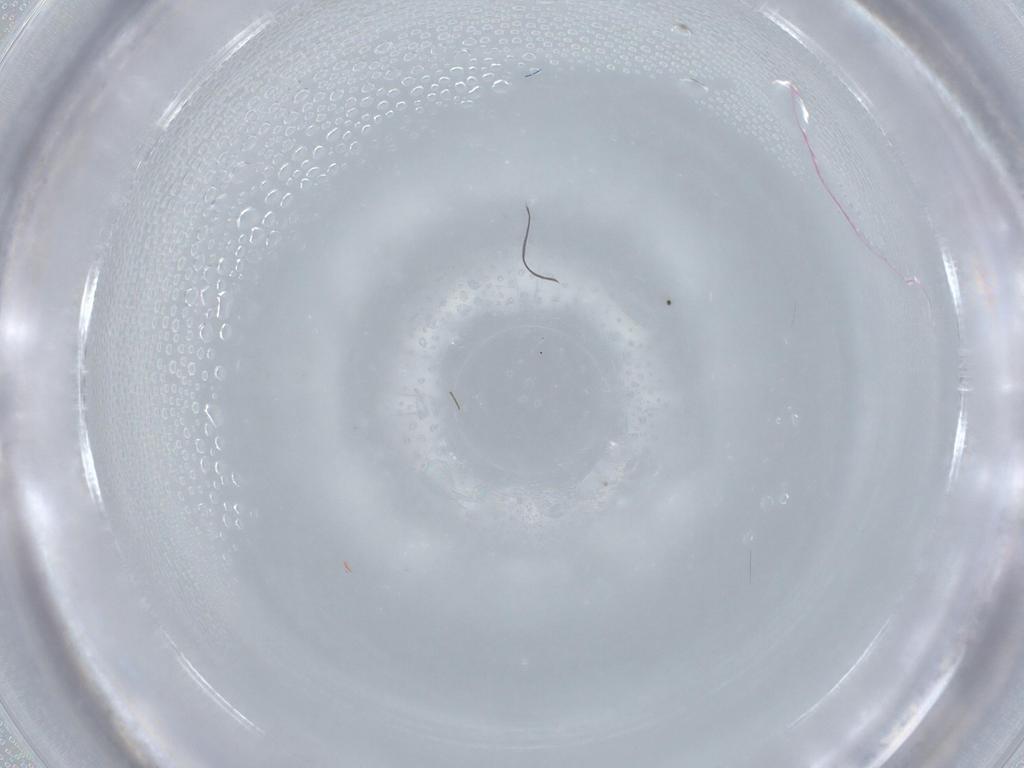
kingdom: Animalia
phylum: Arthropoda
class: Insecta
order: Diptera
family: Cecidomyiidae
